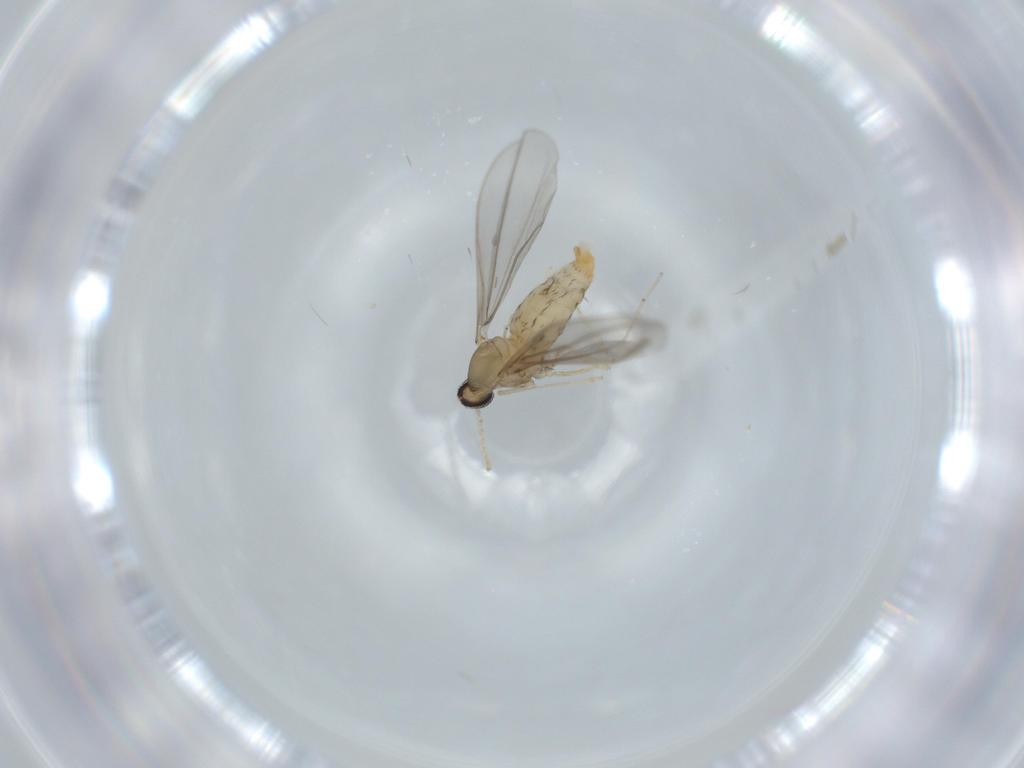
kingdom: Animalia
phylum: Arthropoda
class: Insecta
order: Diptera
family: Cecidomyiidae
